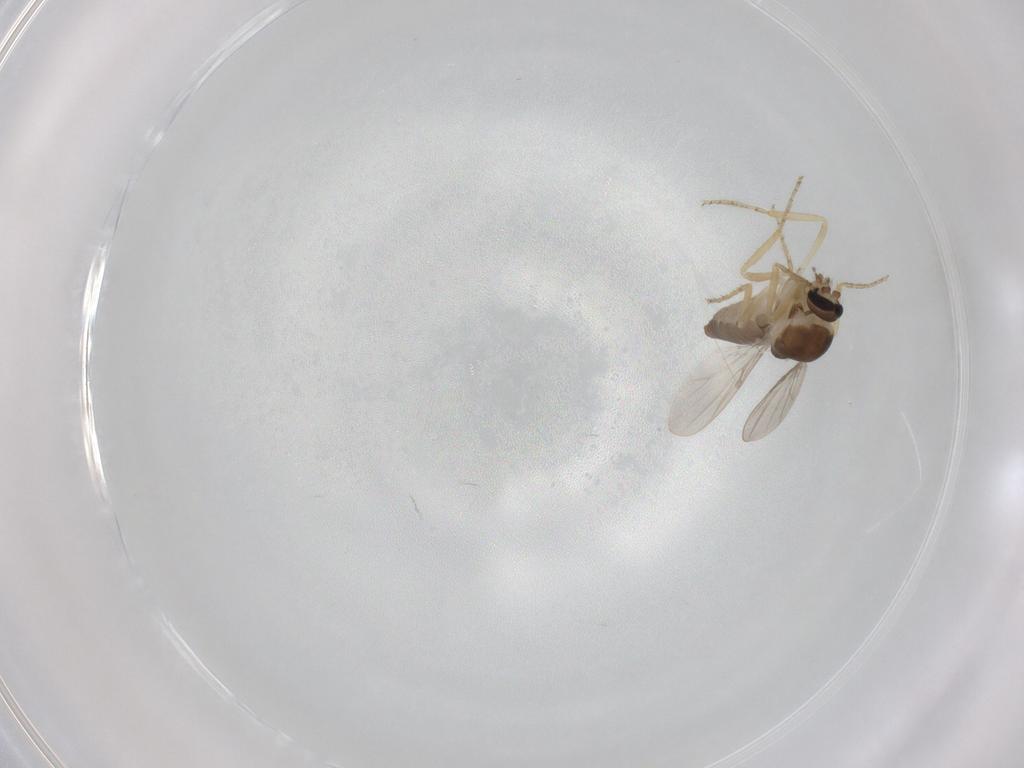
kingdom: Animalia
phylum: Arthropoda
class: Insecta
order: Diptera
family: Ceratopogonidae
